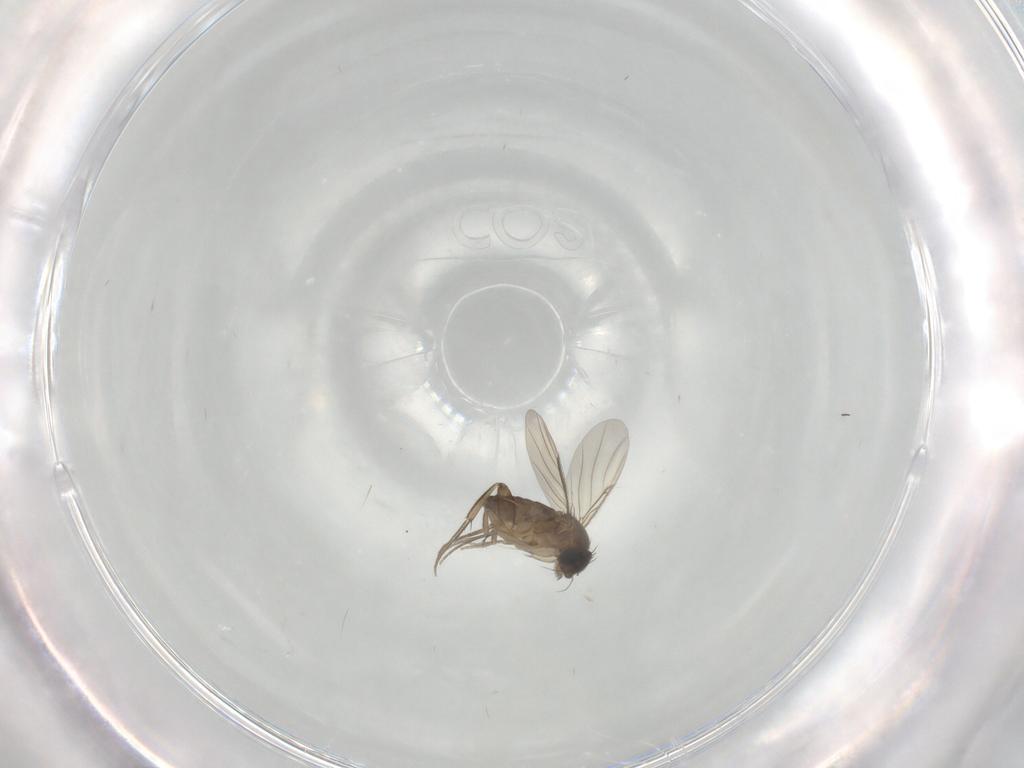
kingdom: Animalia
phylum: Arthropoda
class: Insecta
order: Diptera
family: Phoridae
